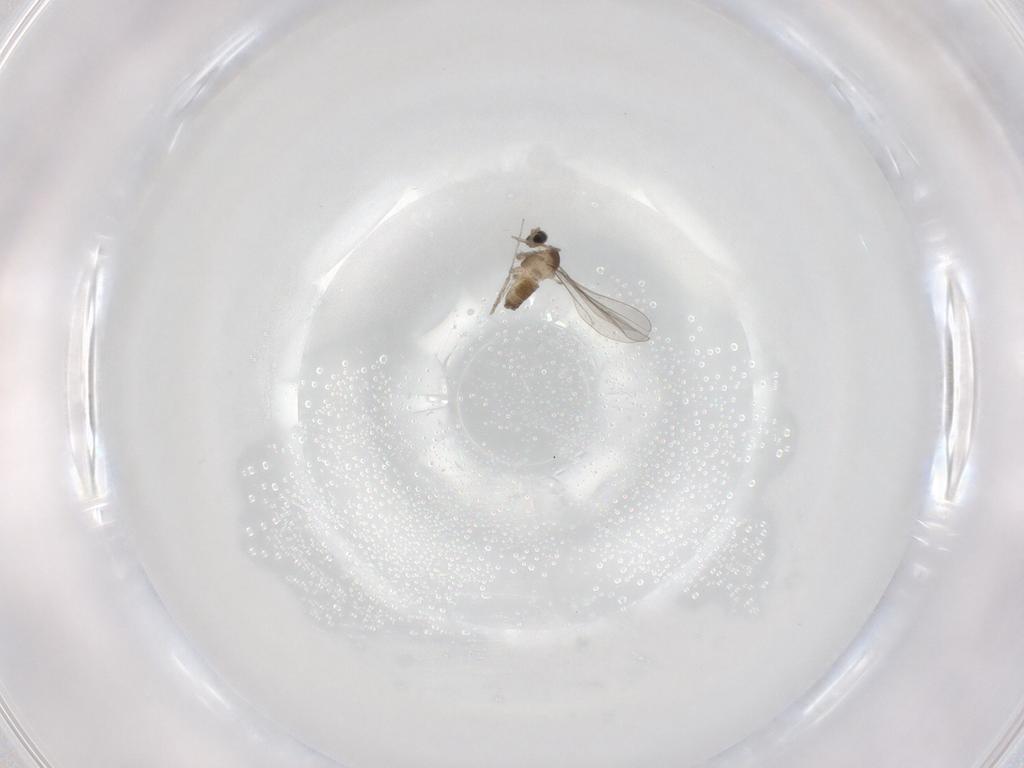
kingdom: Animalia
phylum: Arthropoda
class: Insecta
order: Diptera
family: Psychodidae
